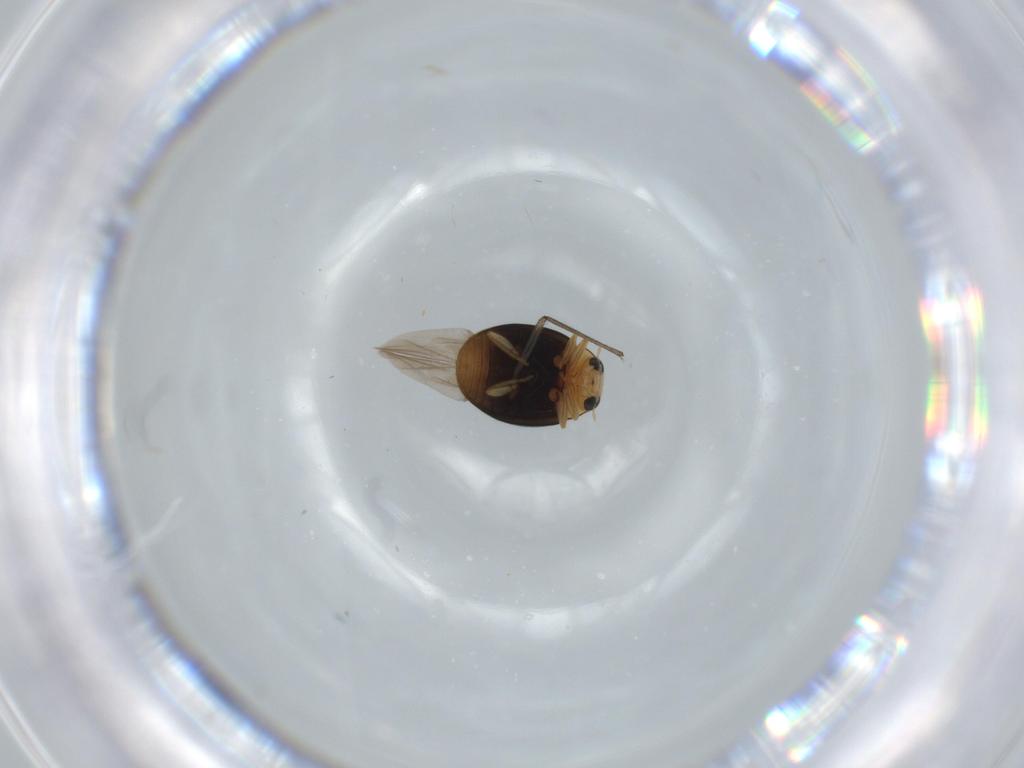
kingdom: Animalia
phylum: Arthropoda
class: Insecta
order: Coleoptera
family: Coccinellidae
